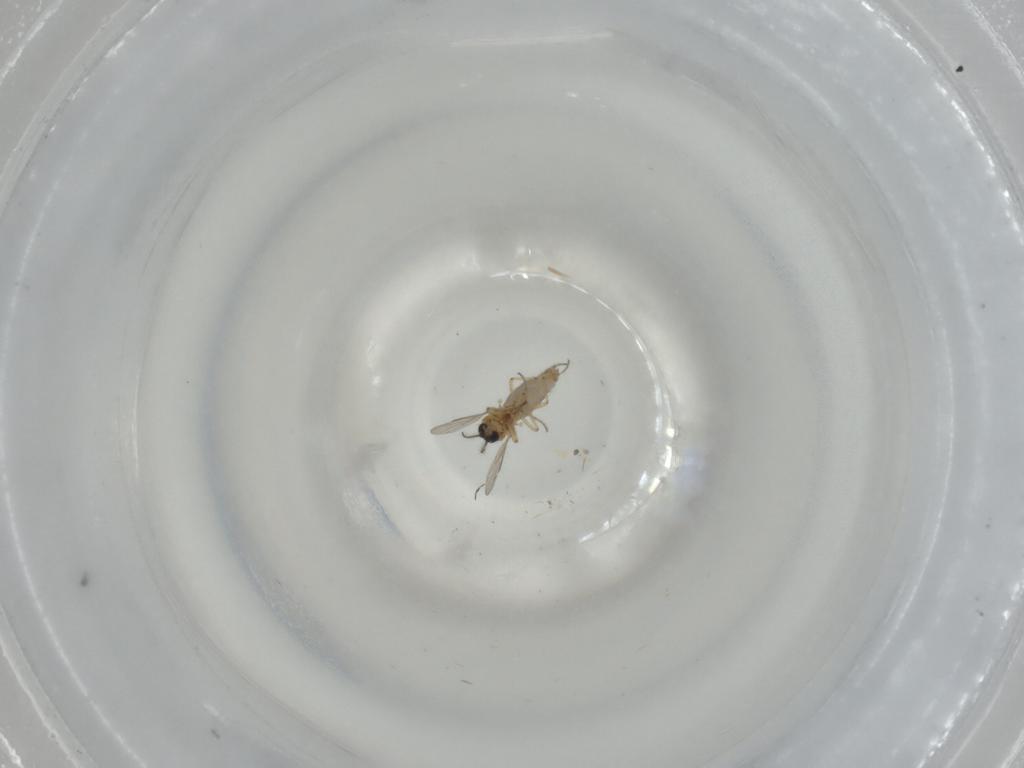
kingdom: Animalia
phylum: Arthropoda
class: Insecta
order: Diptera
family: Ceratopogonidae
